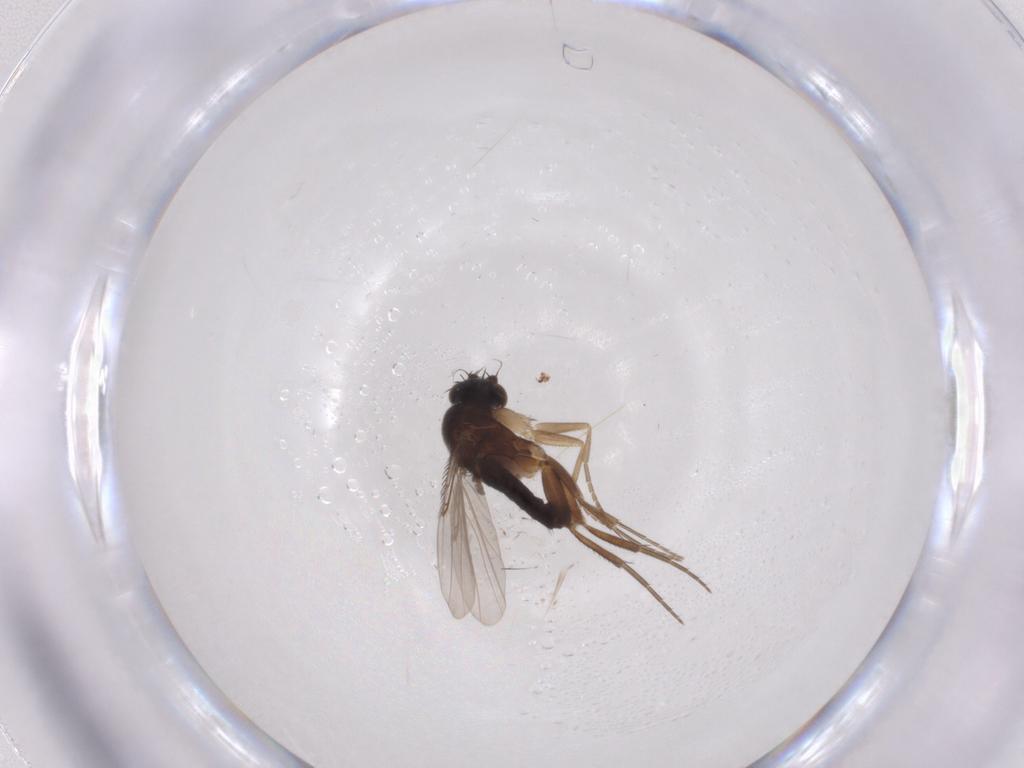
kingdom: Animalia
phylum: Arthropoda
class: Insecta
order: Diptera
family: Phoridae
